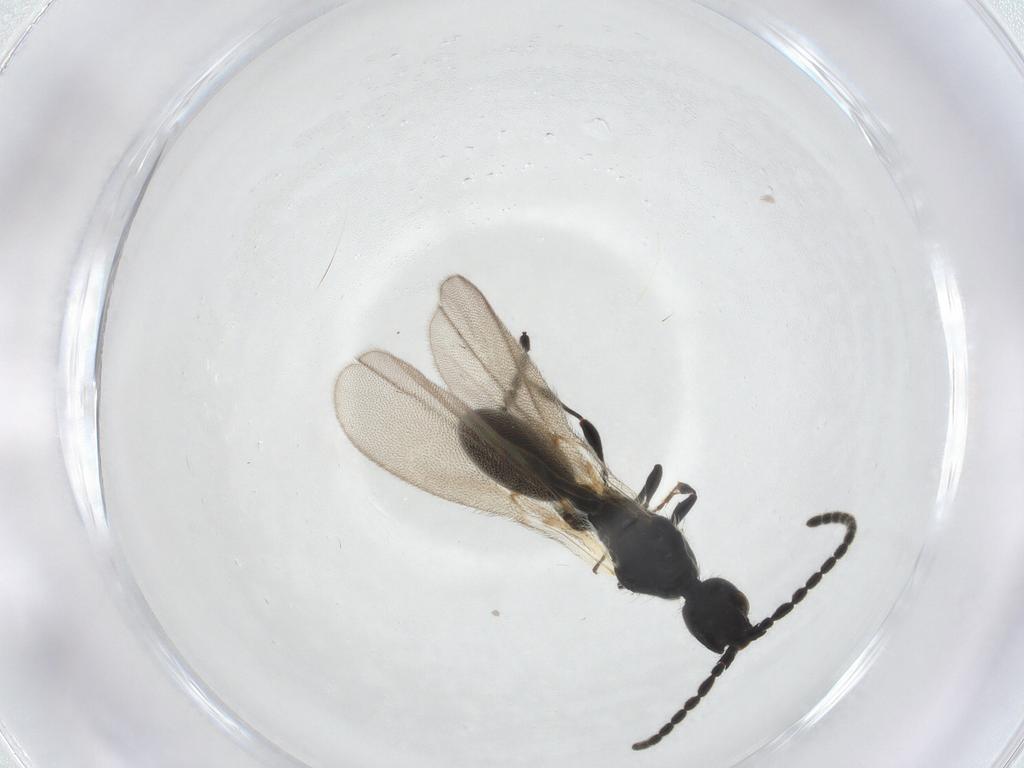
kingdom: Animalia
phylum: Arthropoda
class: Insecta
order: Hymenoptera
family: Diapriidae
